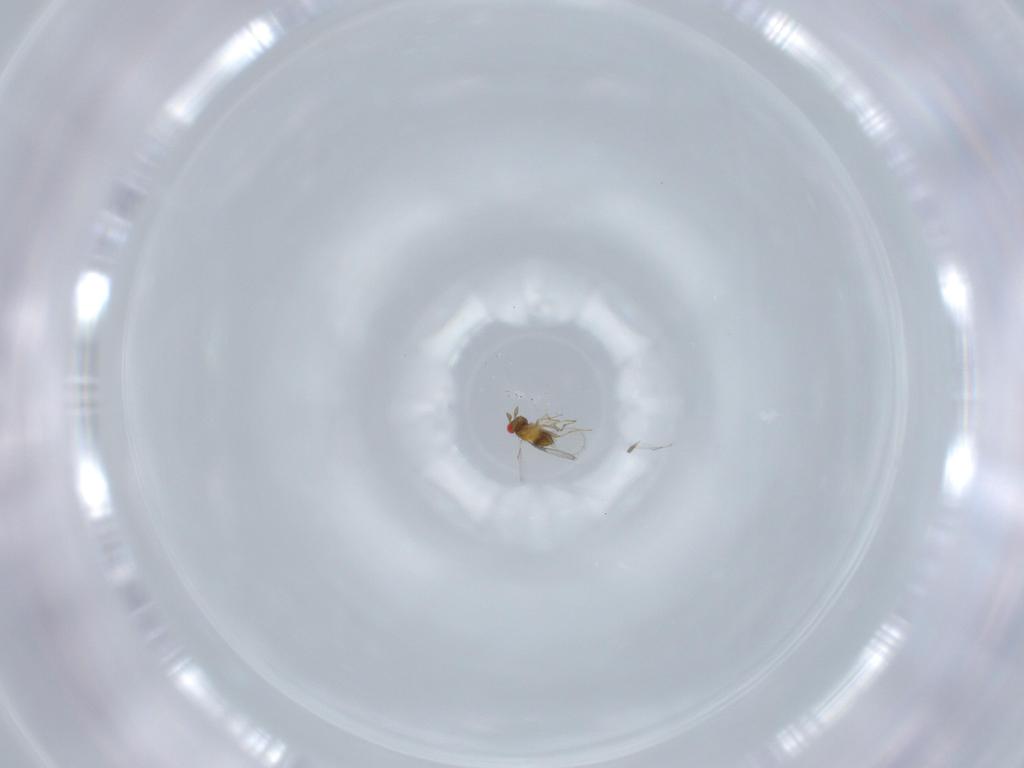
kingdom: Animalia
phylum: Arthropoda
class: Insecta
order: Hymenoptera
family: Trichogrammatidae
